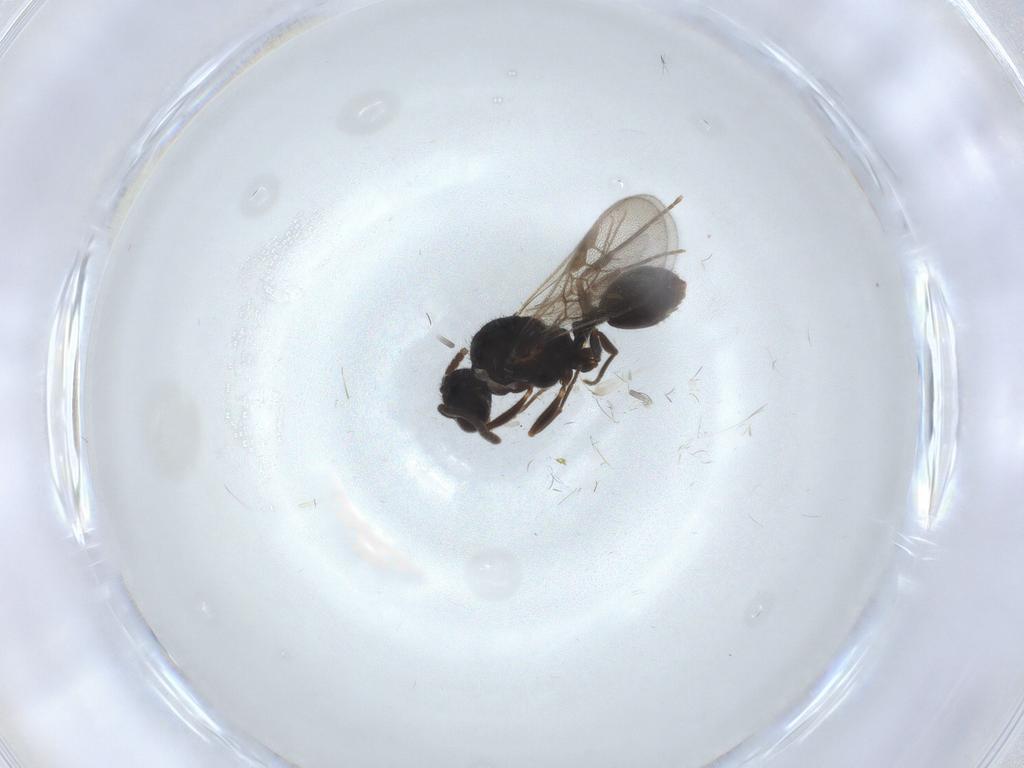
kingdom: Animalia
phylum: Arthropoda
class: Insecta
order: Hymenoptera
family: Formicidae
